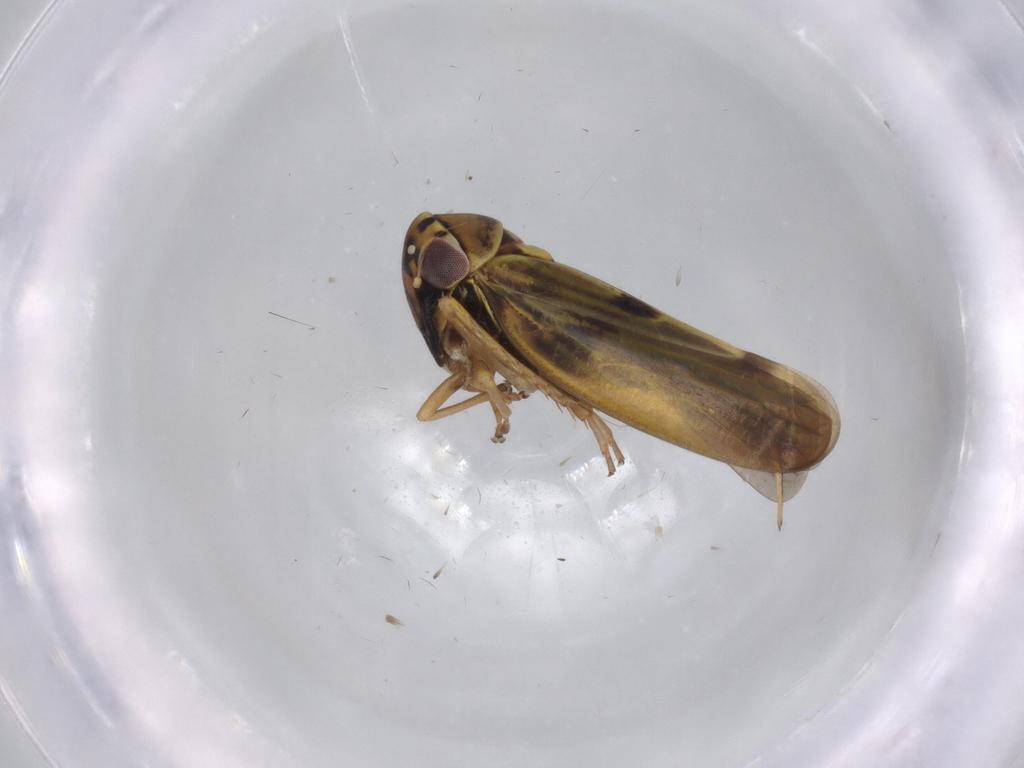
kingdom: Animalia
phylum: Arthropoda
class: Insecta
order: Hemiptera
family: Cicadellidae
